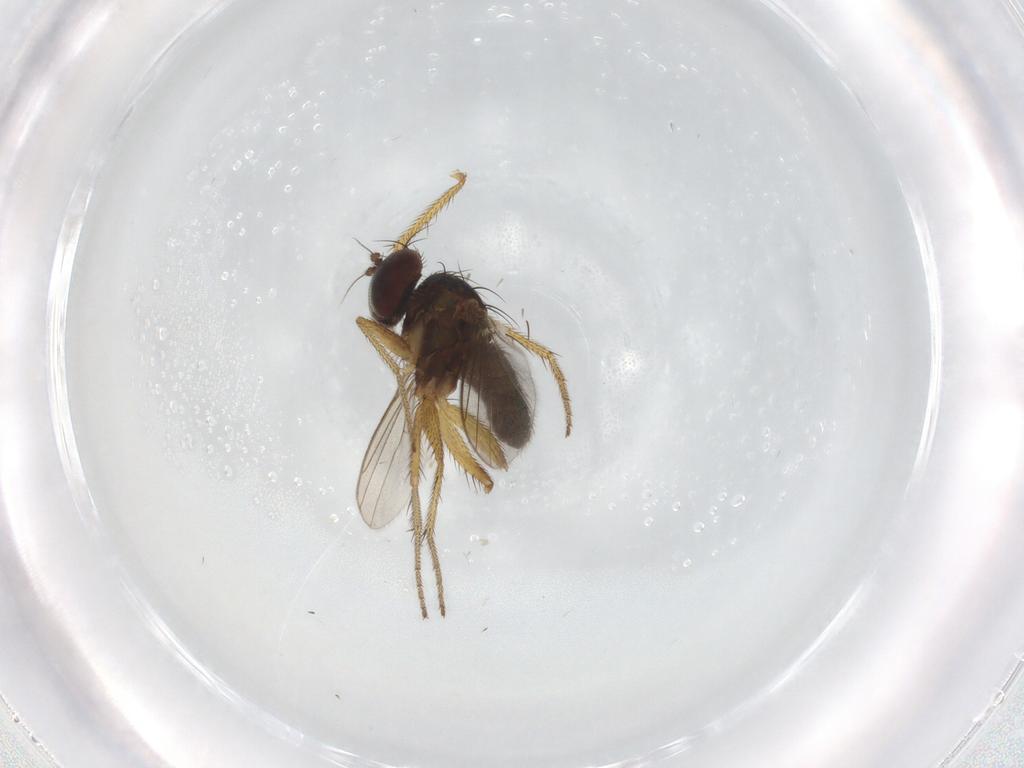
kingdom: Animalia
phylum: Arthropoda
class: Insecta
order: Diptera
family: Dolichopodidae
